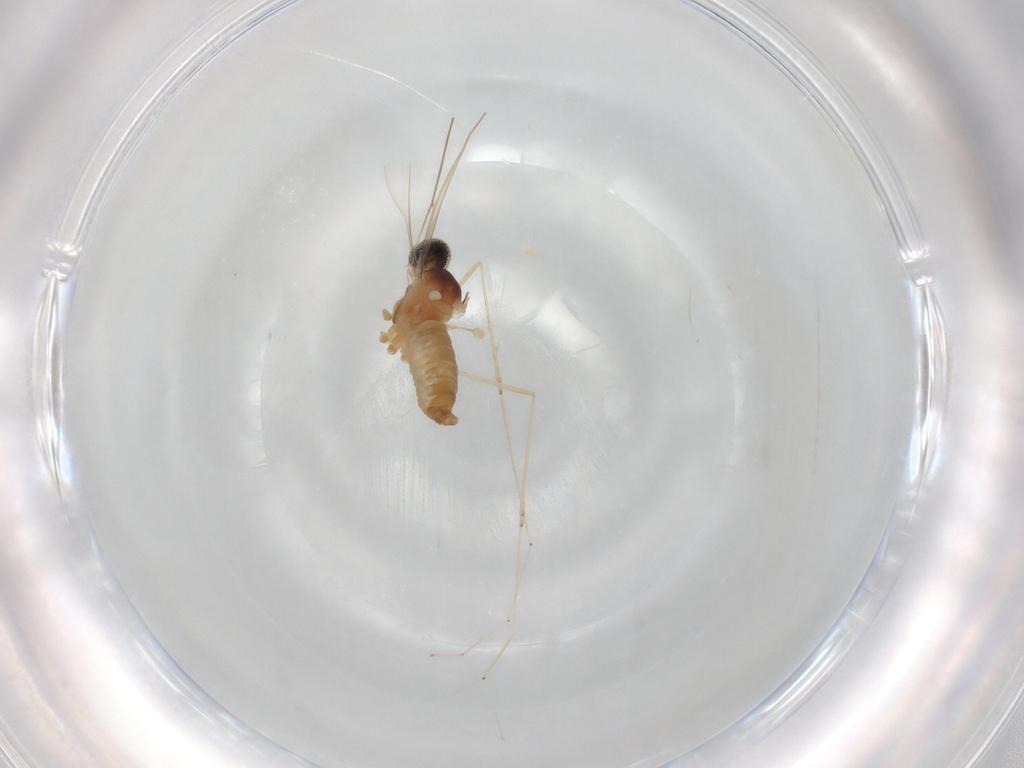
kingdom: Animalia
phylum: Arthropoda
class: Insecta
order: Diptera
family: Cecidomyiidae
